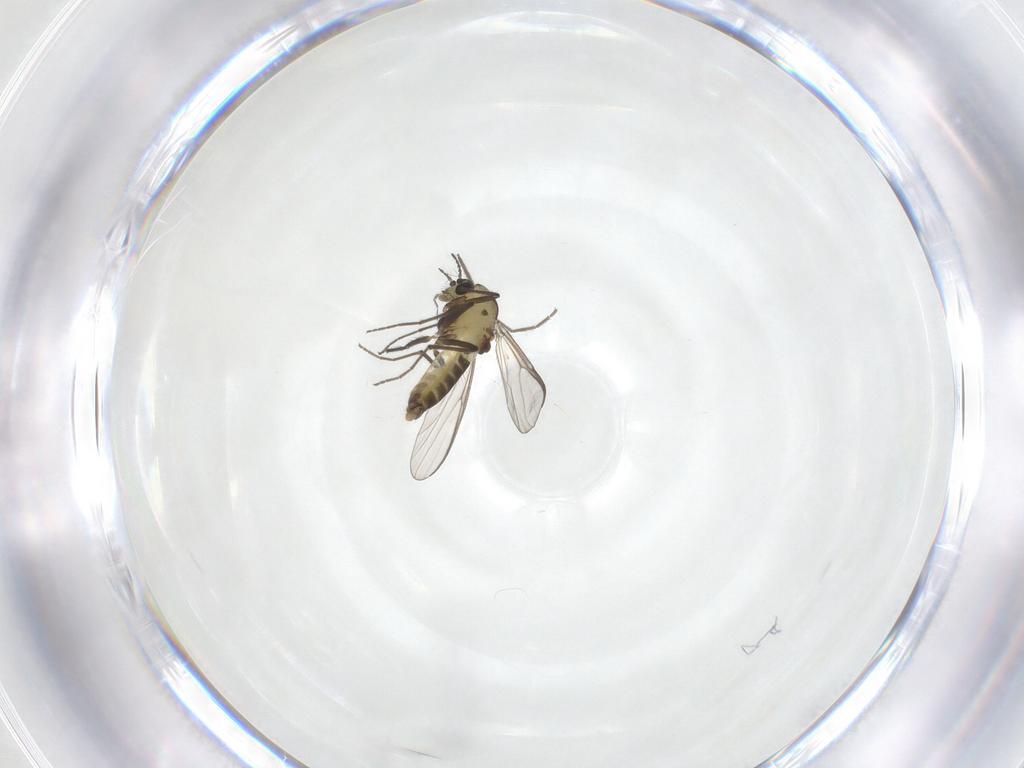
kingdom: Animalia
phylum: Arthropoda
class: Insecta
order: Diptera
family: Chironomidae
